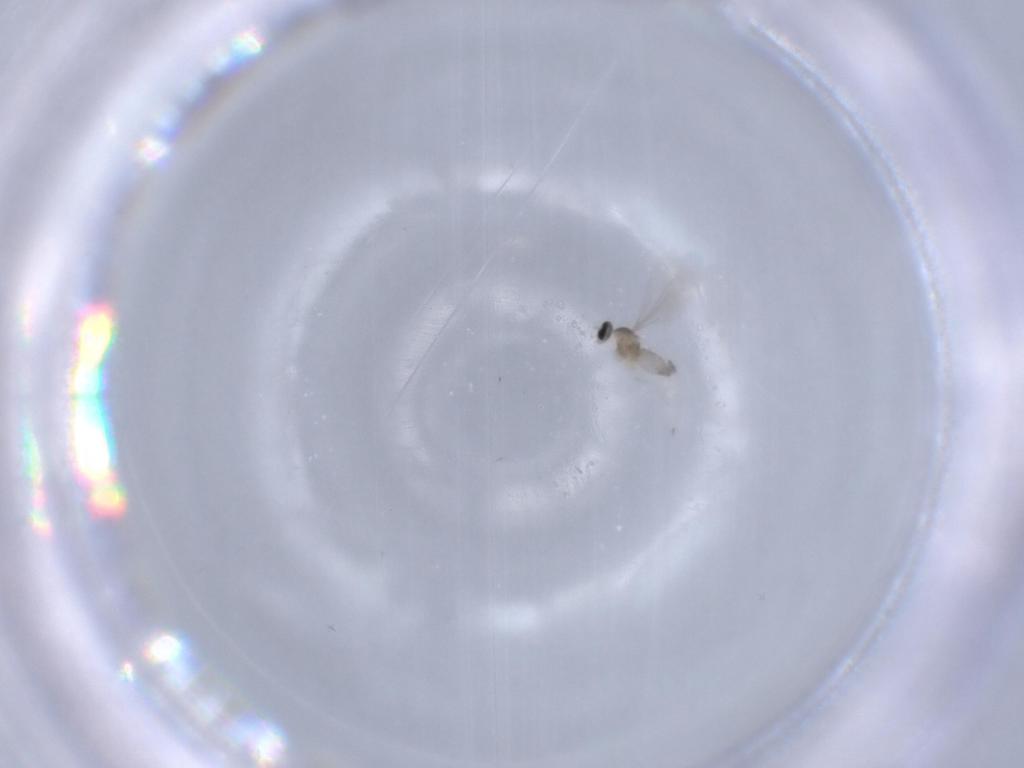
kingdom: Animalia
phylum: Arthropoda
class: Insecta
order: Diptera
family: Cecidomyiidae
